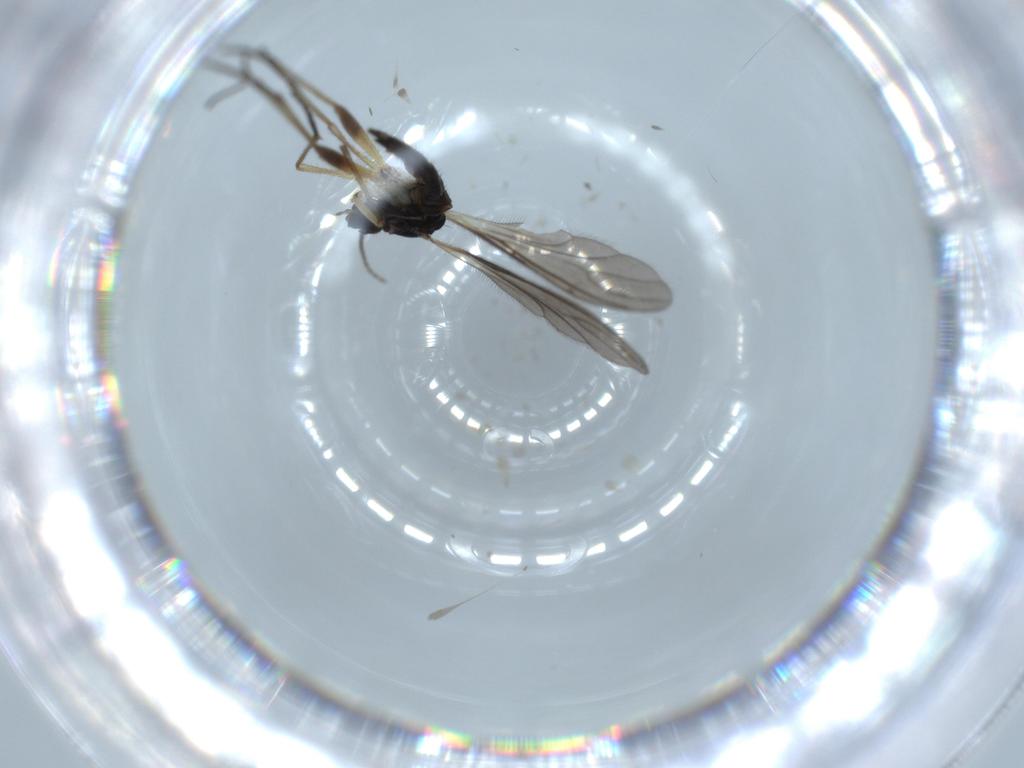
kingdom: Animalia
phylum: Arthropoda
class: Insecta
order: Diptera
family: Sciaridae
